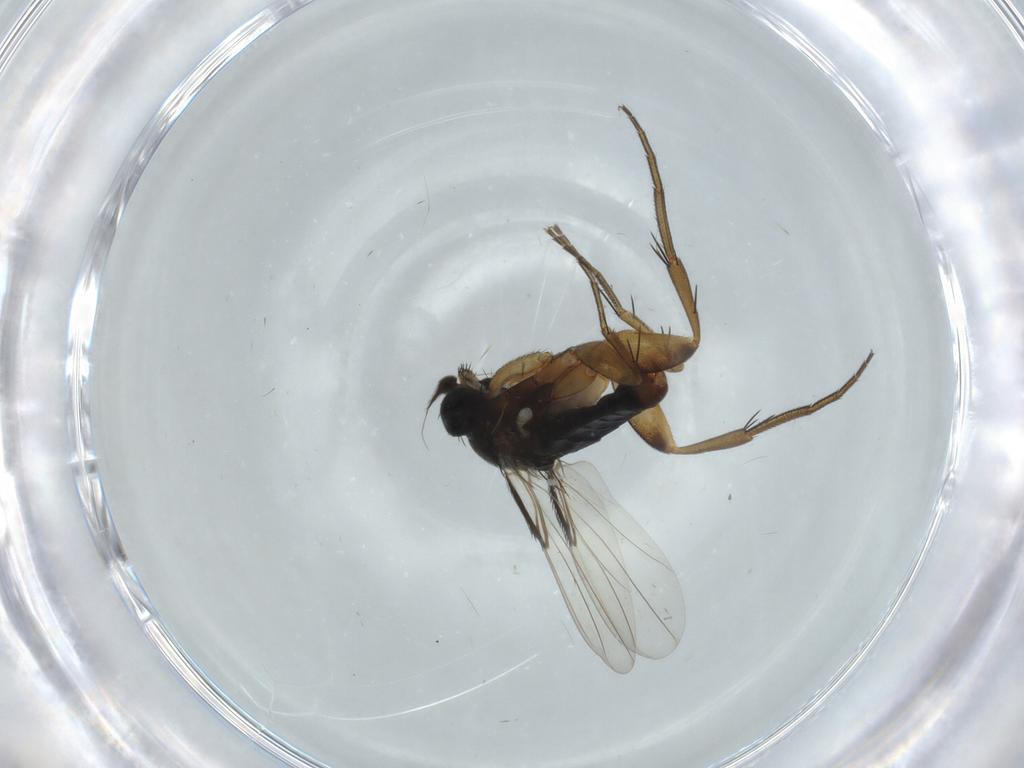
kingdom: Animalia
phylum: Arthropoda
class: Insecta
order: Diptera
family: Phoridae
